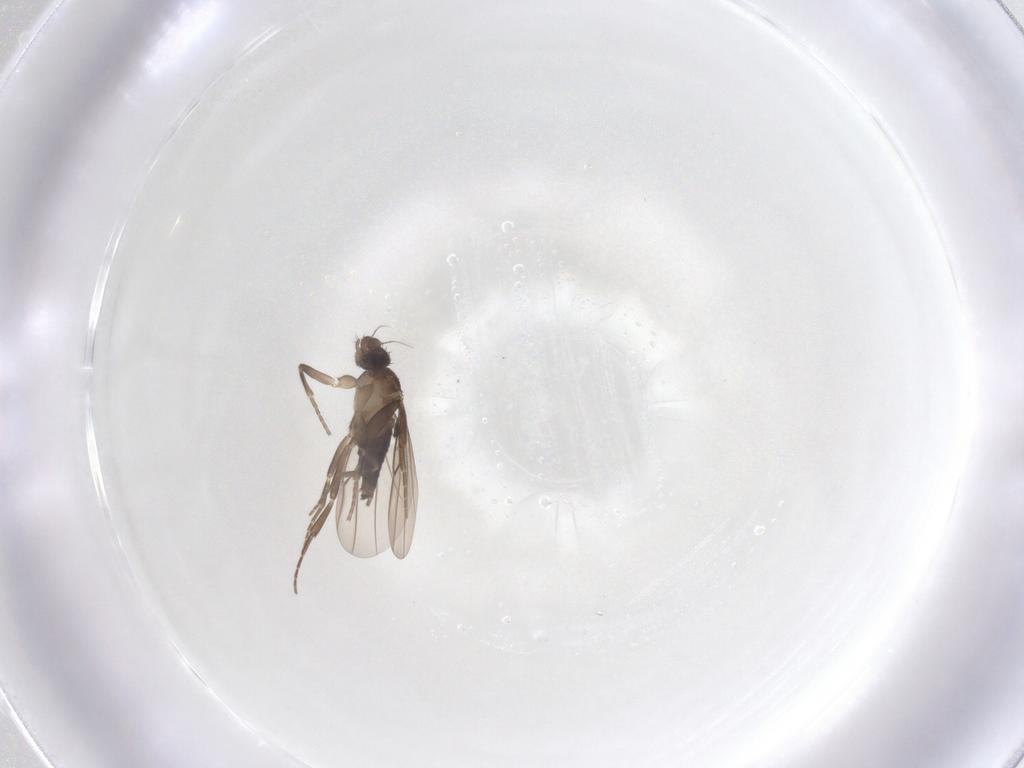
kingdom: Animalia
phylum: Arthropoda
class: Insecta
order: Diptera
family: Phoridae
